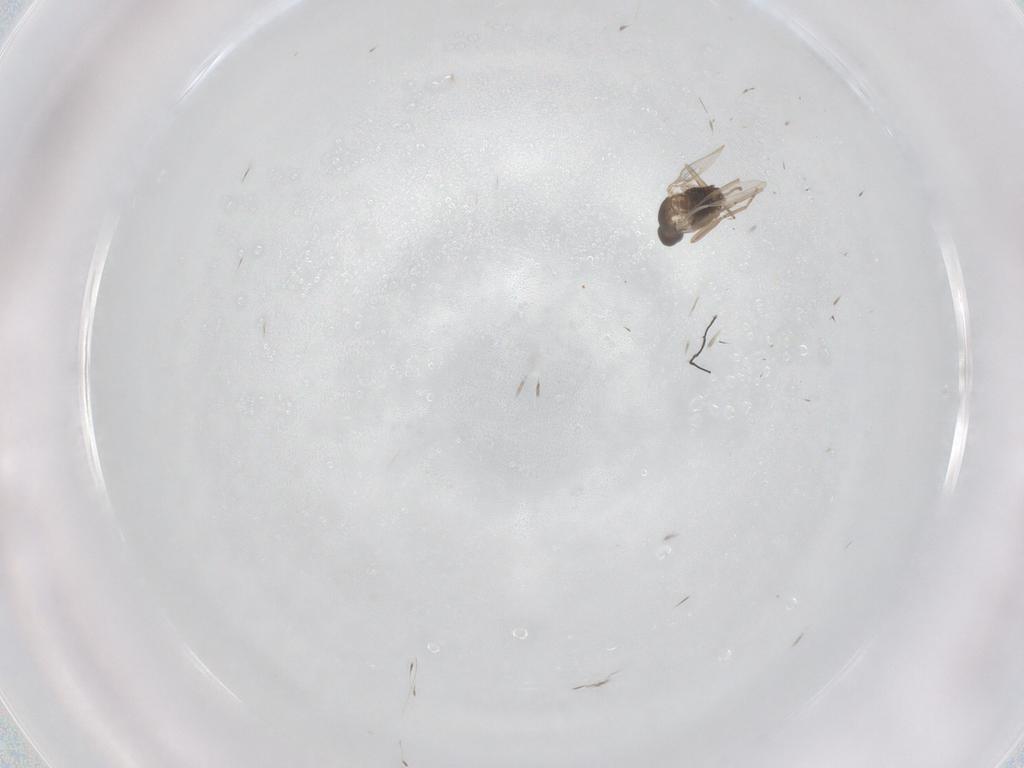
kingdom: Animalia
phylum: Arthropoda
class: Insecta
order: Diptera
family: Cecidomyiidae
